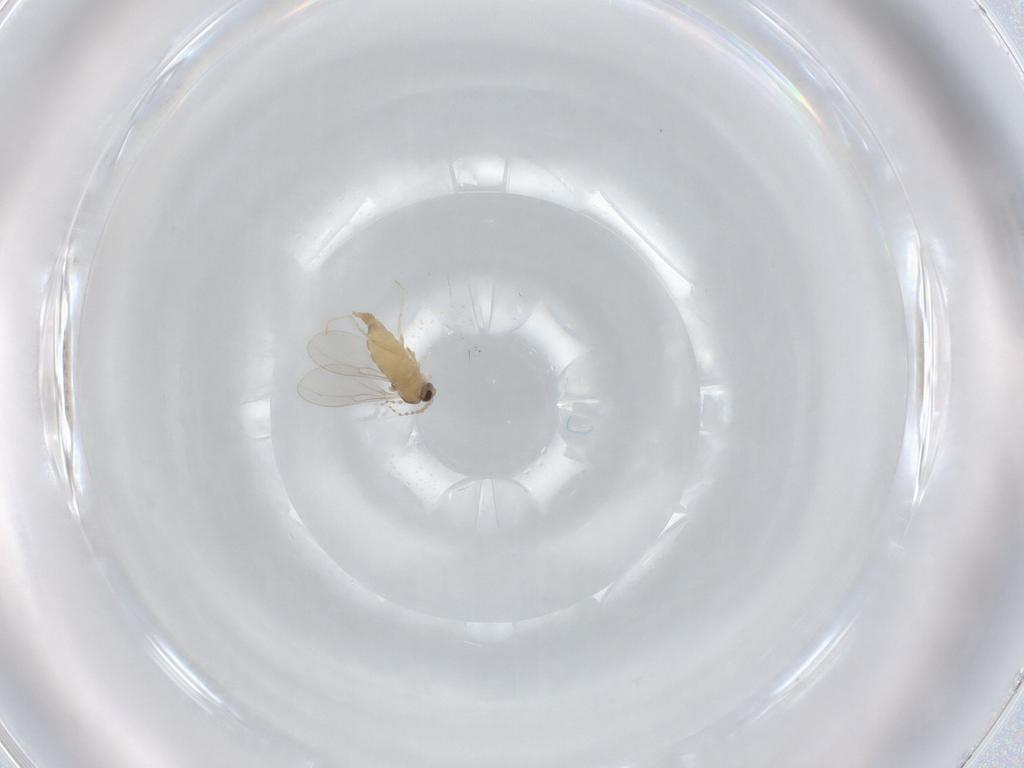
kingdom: Animalia
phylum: Arthropoda
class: Insecta
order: Diptera
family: Cecidomyiidae
